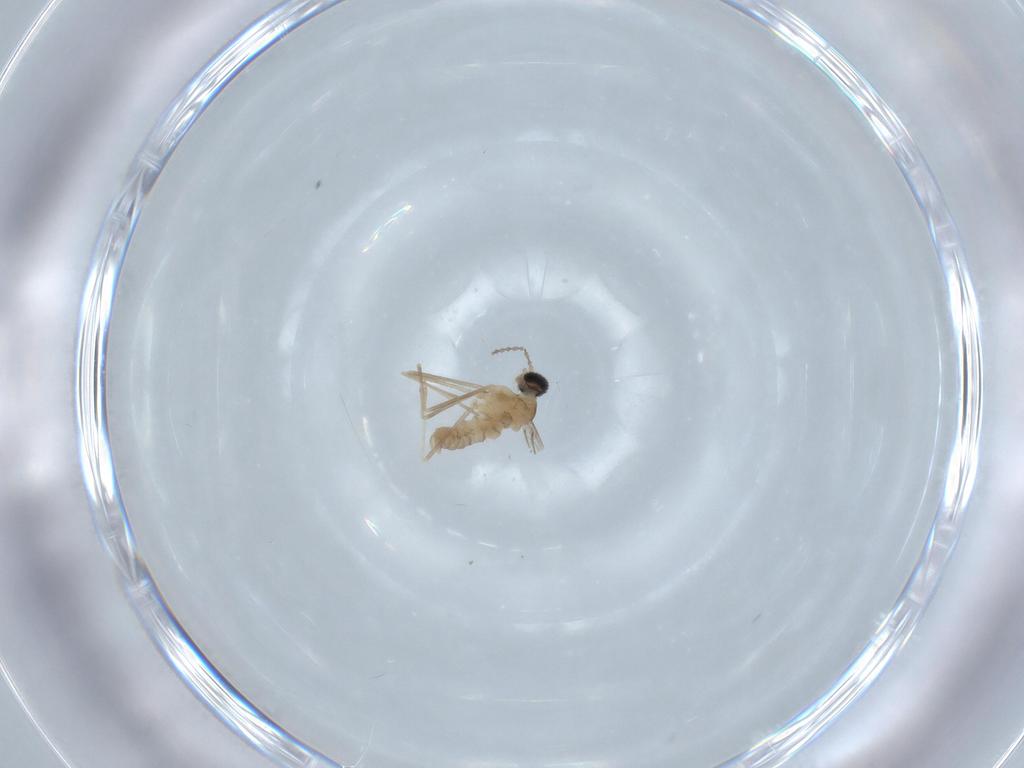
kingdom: Animalia
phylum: Arthropoda
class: Insecta
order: Diptera
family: Cecidomyiidae
